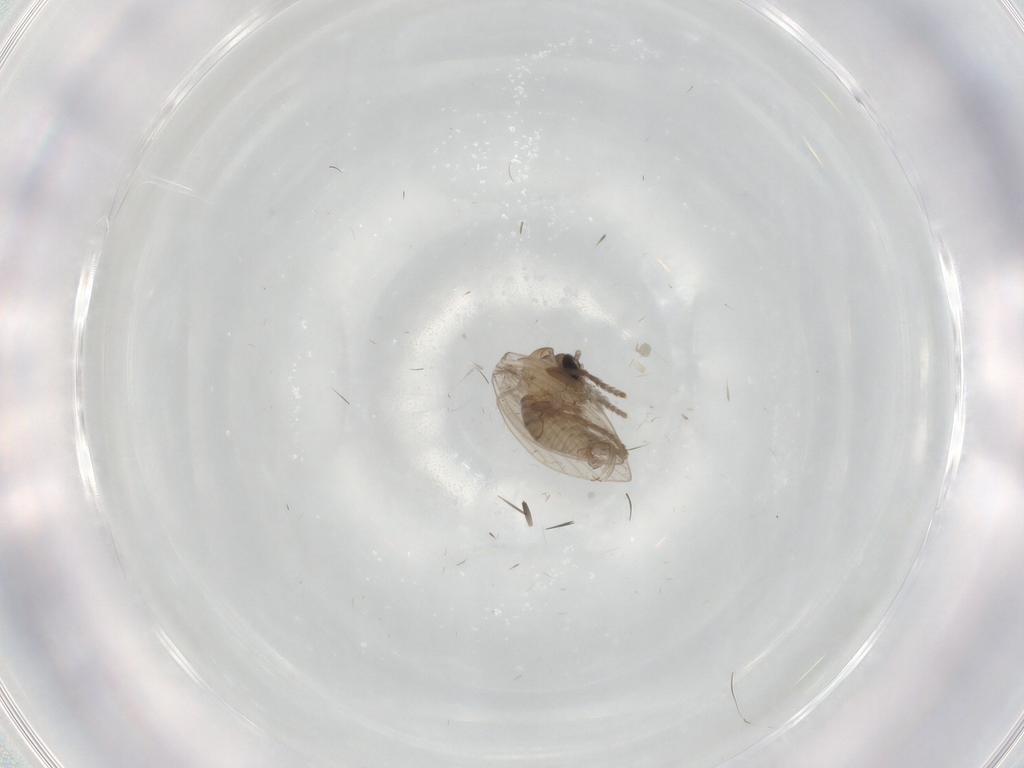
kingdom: Animalia
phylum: Arthropoda
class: Insecta
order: Diptera
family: Psychodidae
